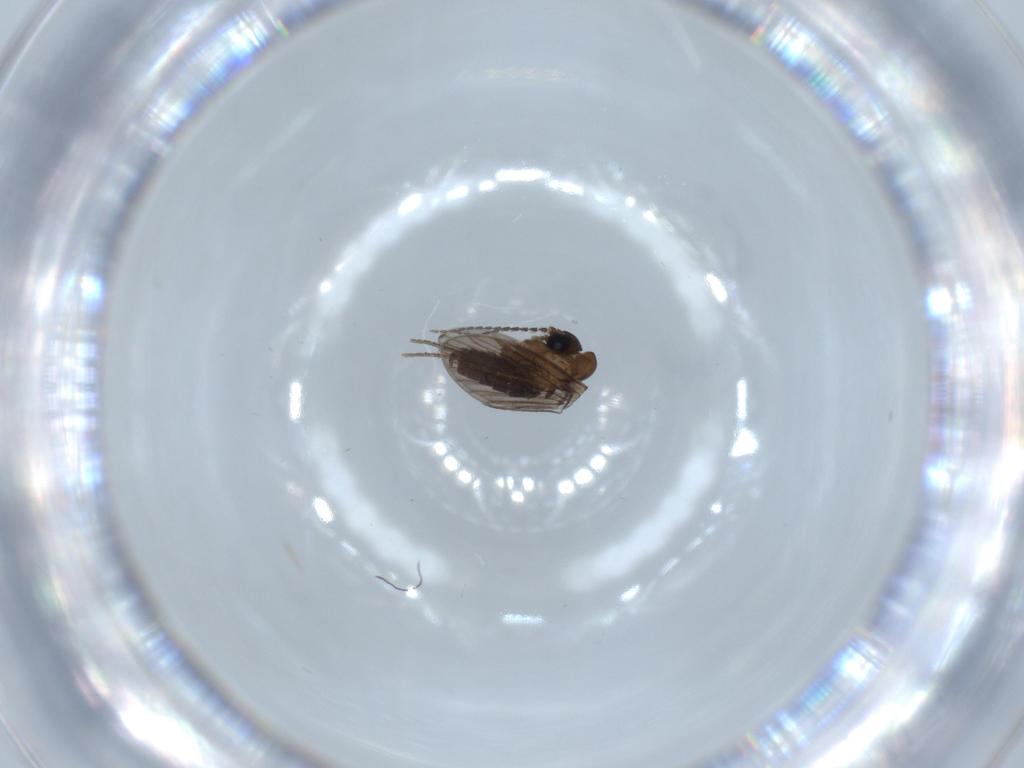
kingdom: Animalia
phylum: Arthropoda
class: Insecta
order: Diptera
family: Psychodidae
